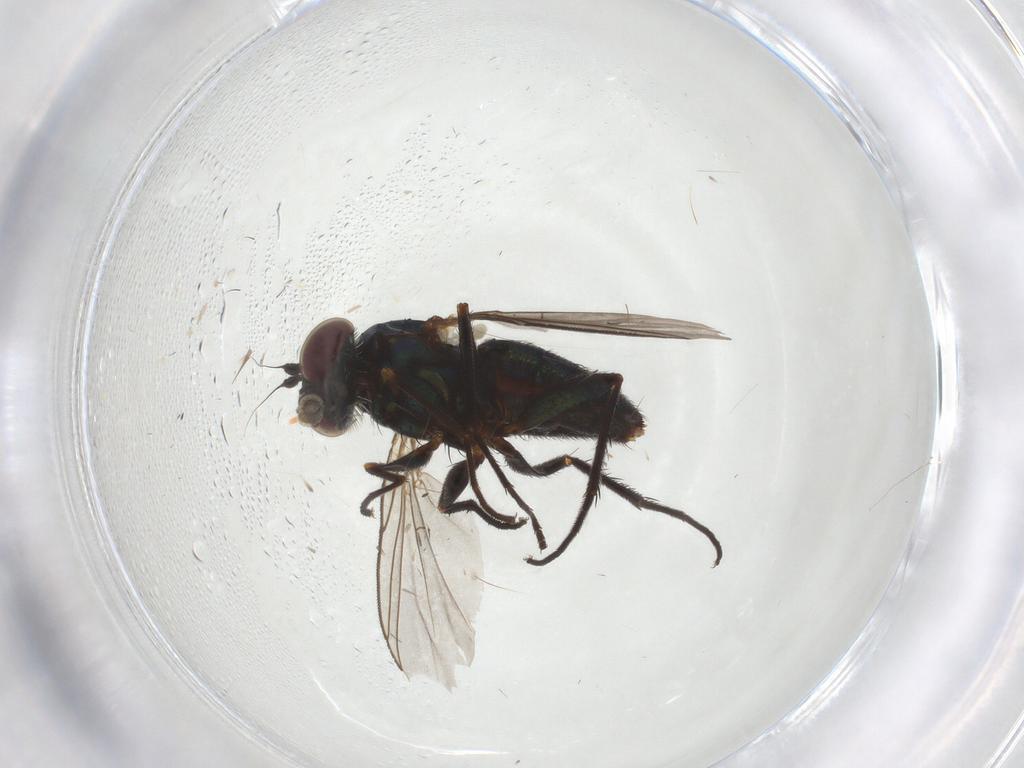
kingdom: Animalia
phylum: Arthropoda
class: Insecta
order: Diptera
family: Dolichopodidae
